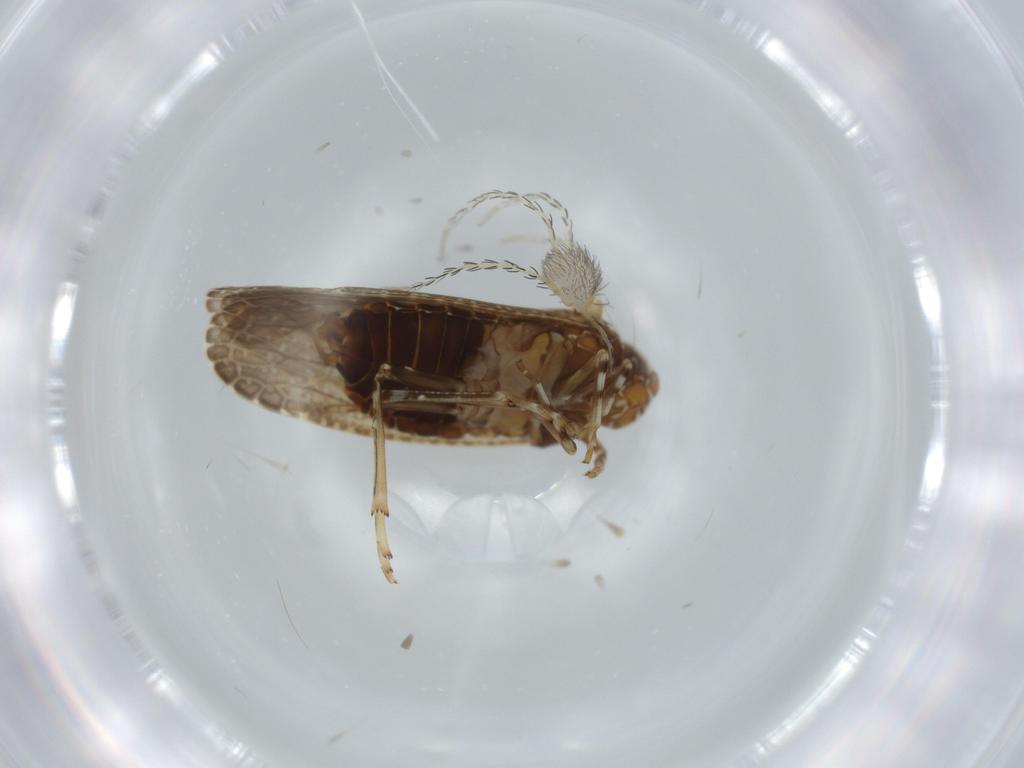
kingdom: Animalia
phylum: Arthropoda
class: Arachnida
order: Trombidiformes
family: Erythraeidae
